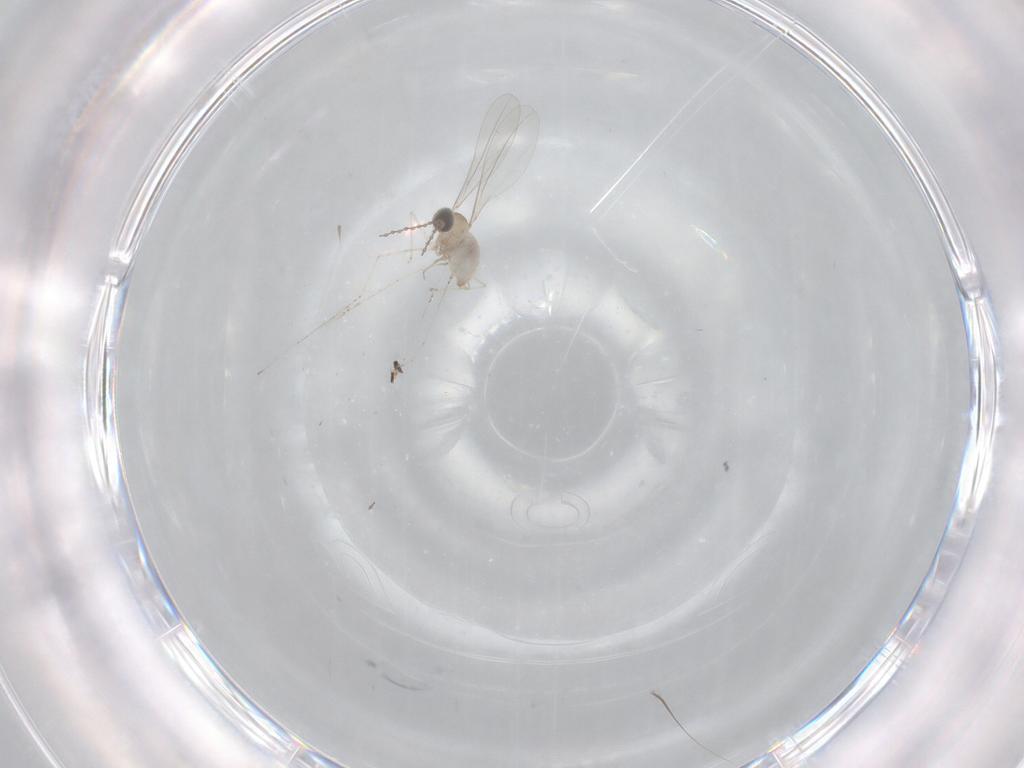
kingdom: Animalia
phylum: Arthropoda
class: Insecta
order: Diptera
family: Cecidomyiidae
